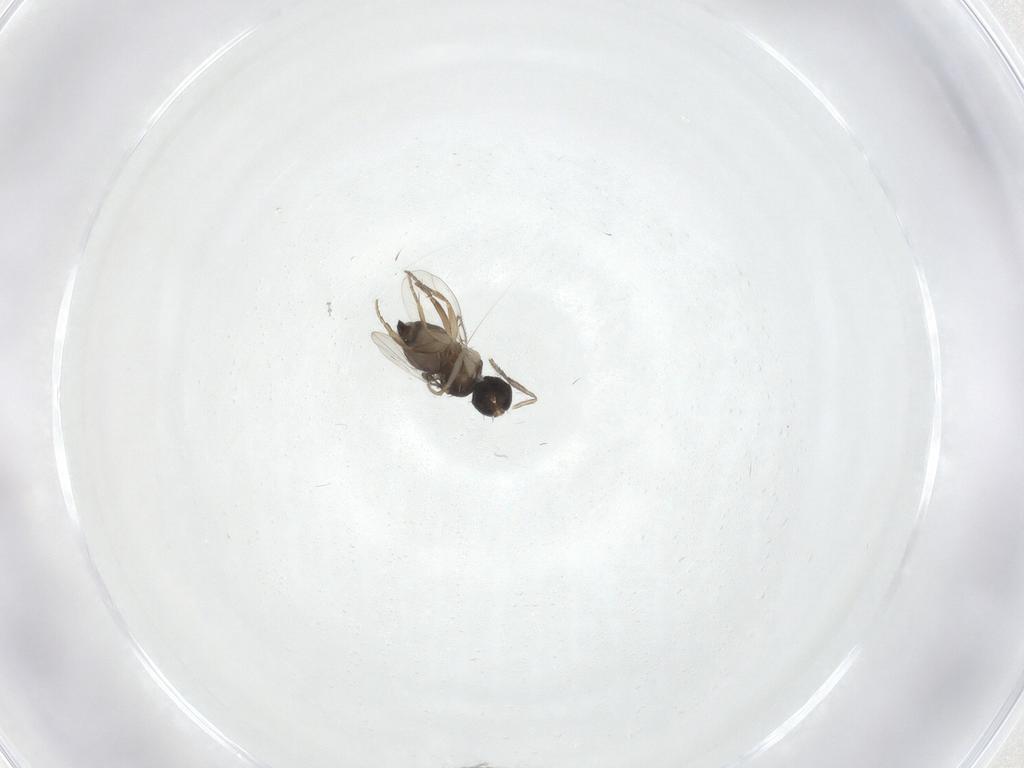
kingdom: Animalia
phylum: Arthropoda
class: Insecta
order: Diptera
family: Phoridae
